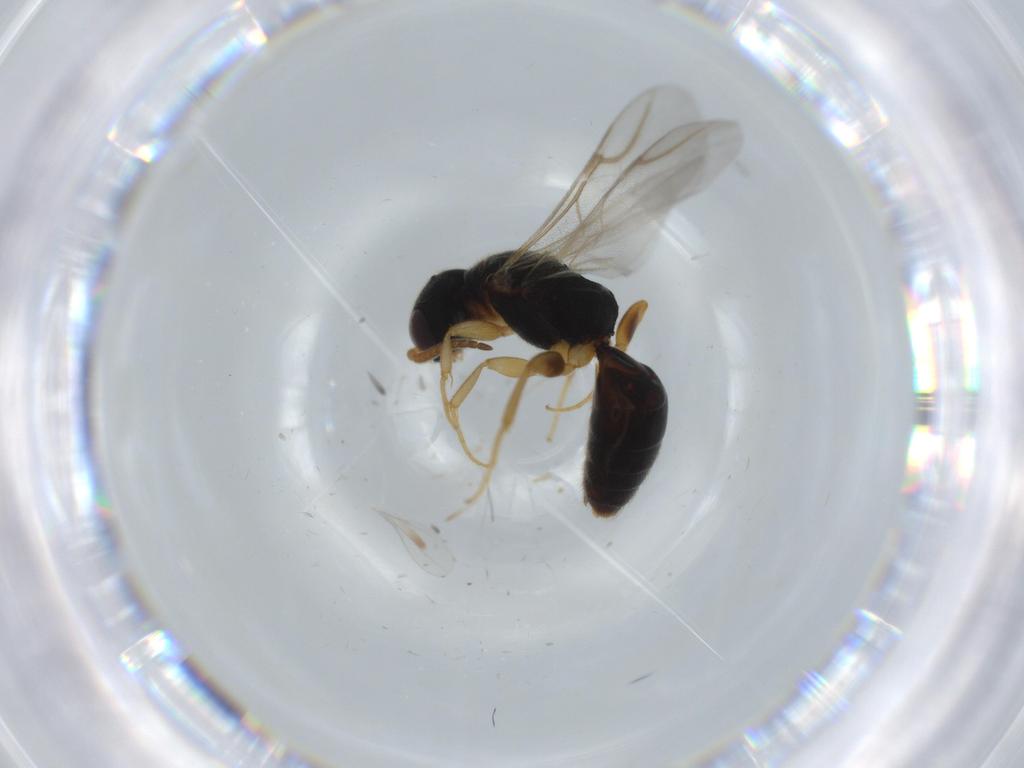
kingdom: Animalia
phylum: Arthropoda
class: Insecta
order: Hymenoptera
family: Bethylidae
